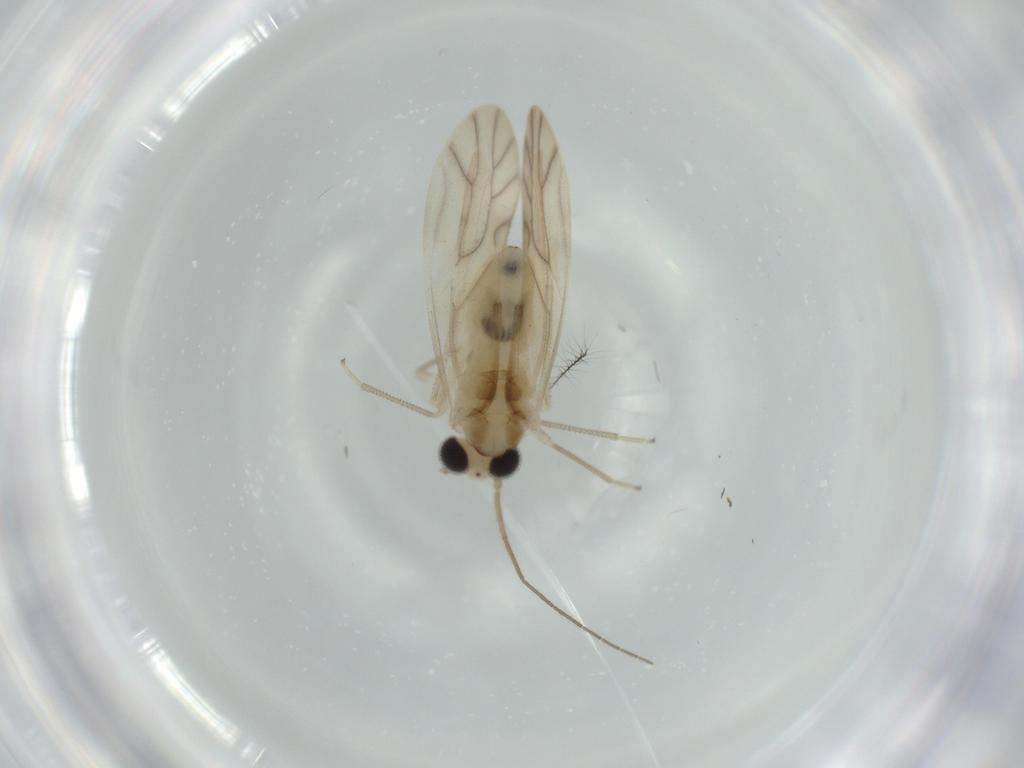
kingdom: Animalia
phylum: Arthropoda
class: Insecta
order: Psocodea
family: Caeciliusidae
